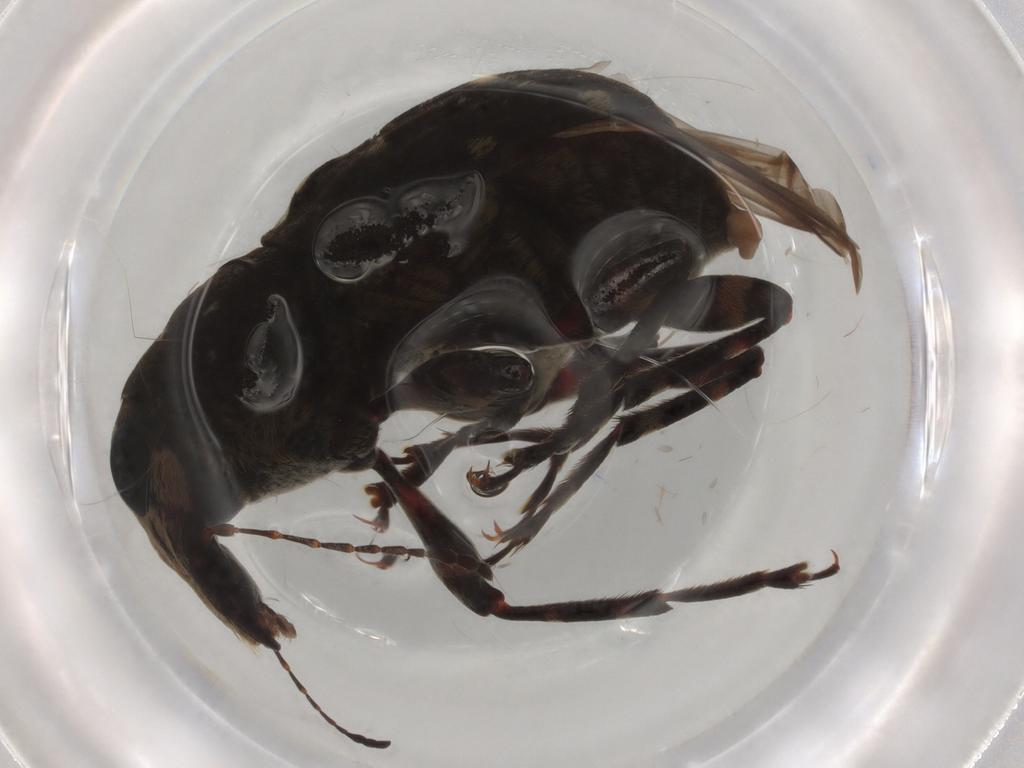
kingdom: Animalia
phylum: Arthropoda
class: Insecta
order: Coleoptera
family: Anthribidae
